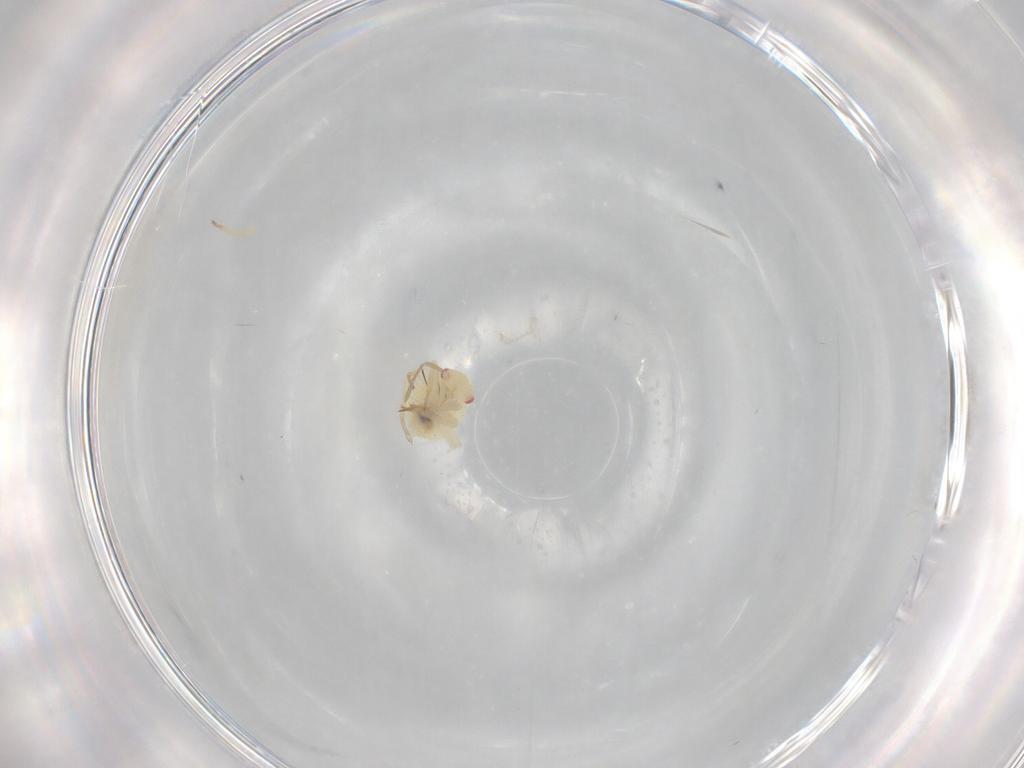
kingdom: Animalia
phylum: Arthropoda
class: Insecta
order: Hemiptera
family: Miridae
